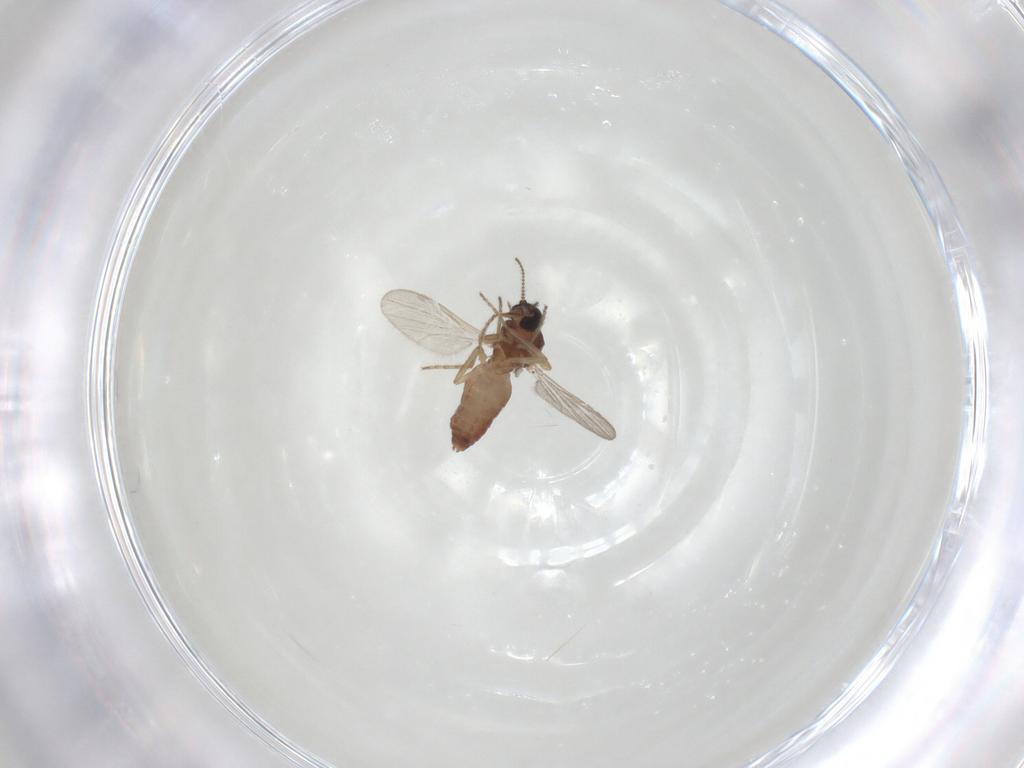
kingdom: Animalia
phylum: Arthropoda
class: Insecta
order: Diptera
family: Ceratopogonidae
